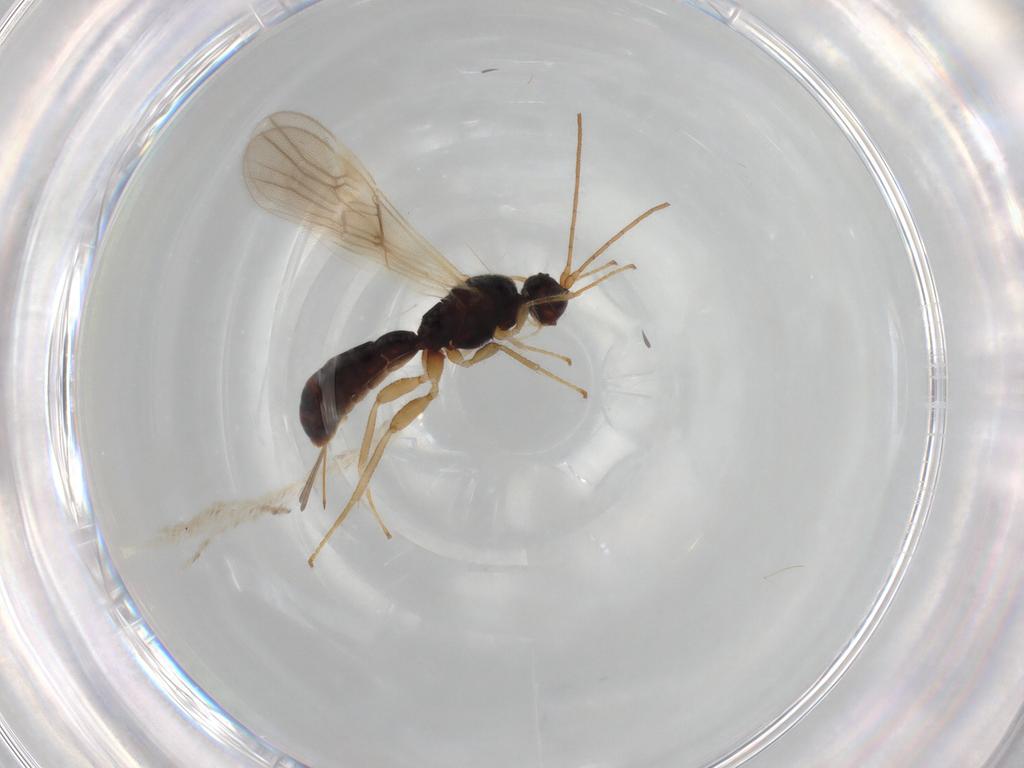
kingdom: Animalia
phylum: Arthropoda
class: Insecta
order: Hymenoptera
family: Braconidae
